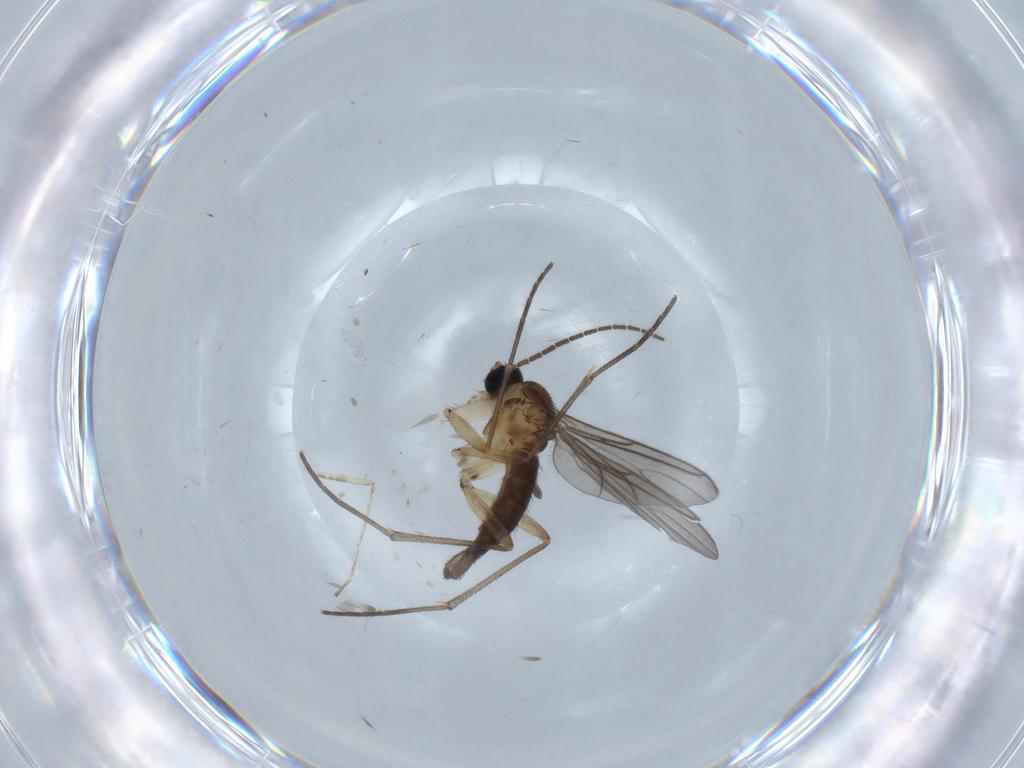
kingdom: Animalia
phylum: Arthropoda
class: Insecta
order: Diptera
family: Sciaridae
